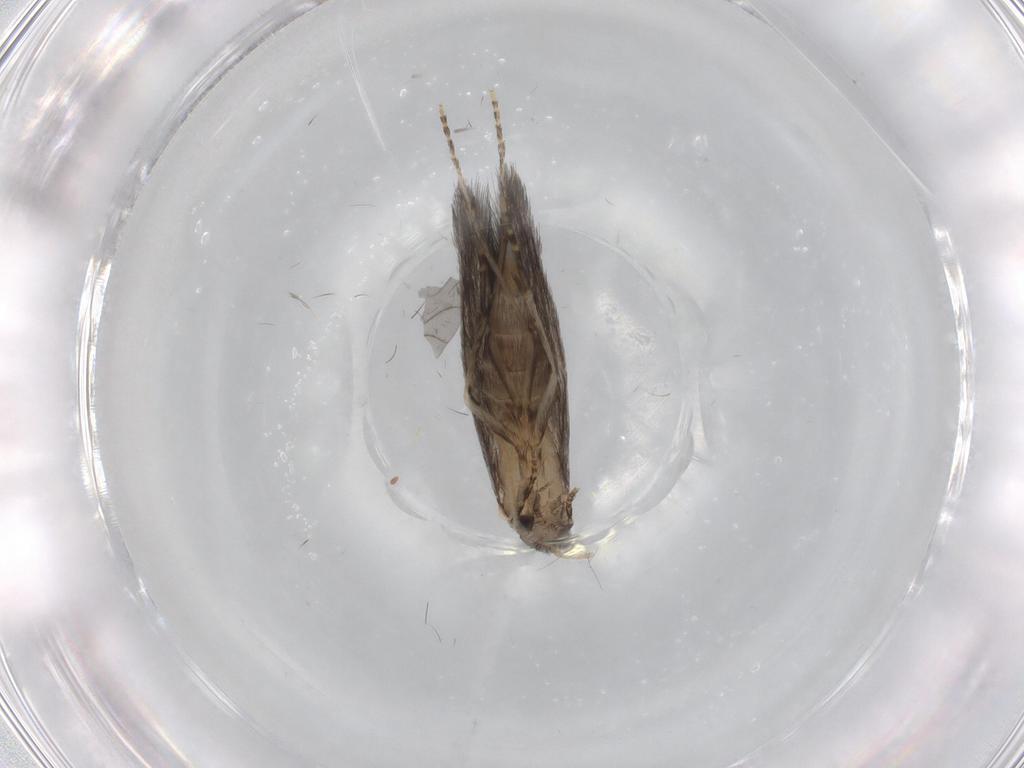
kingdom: Animalia
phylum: Arthropoda
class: Insecta
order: Trichoptera
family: Hydroptilidae
